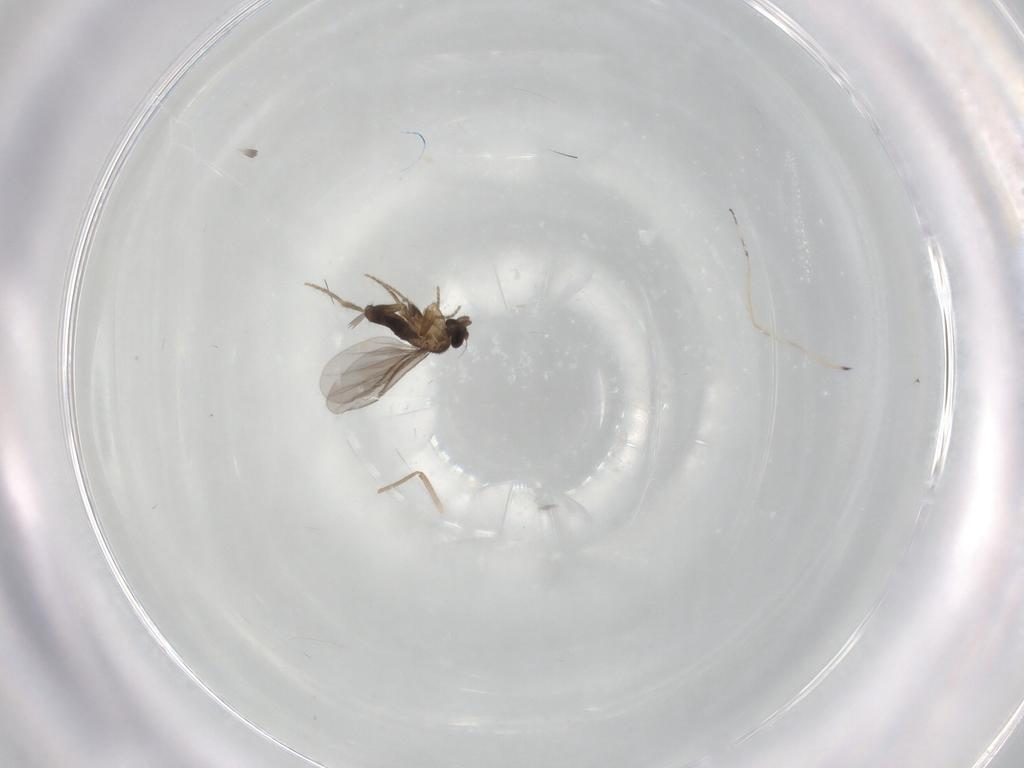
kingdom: Animalia
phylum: Arthropoda
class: Insecta
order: Diptera
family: Chironomidae
